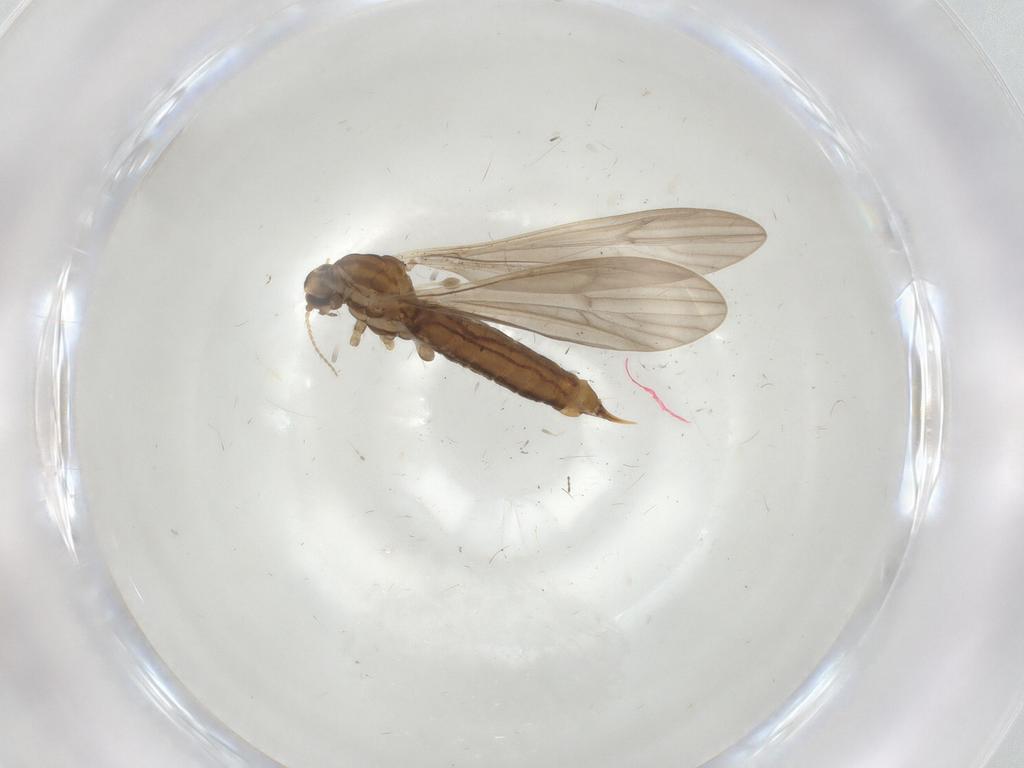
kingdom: Animalia
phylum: Arthropoda
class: Insecta
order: Diptera
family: Limoniidae
